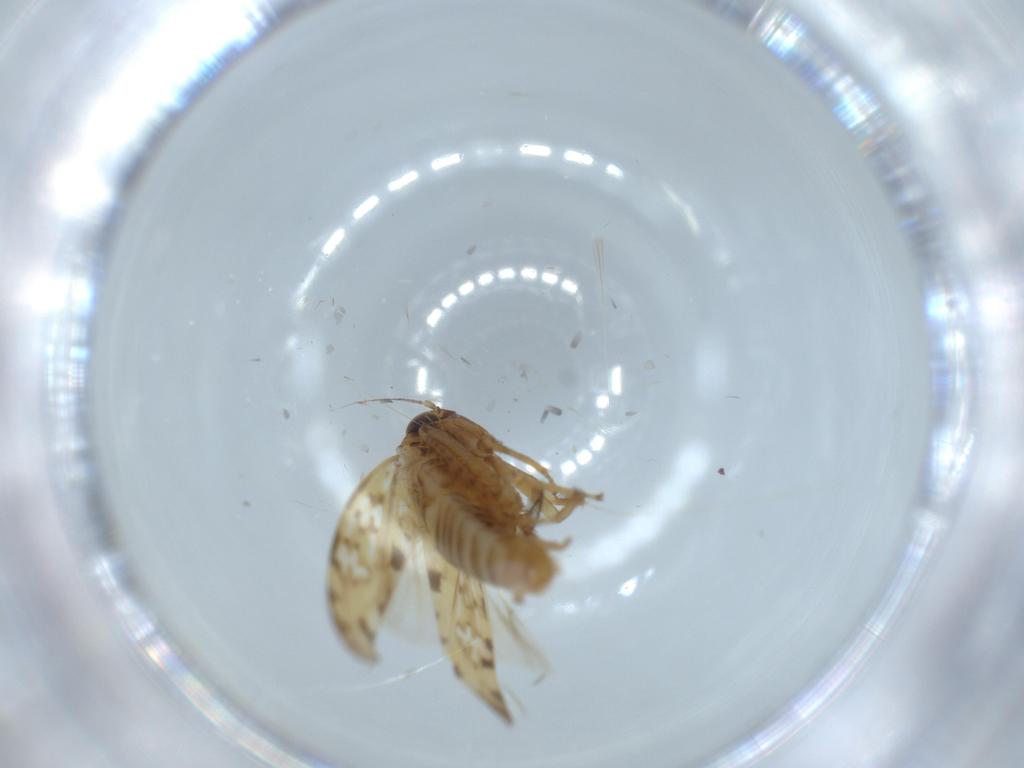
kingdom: Animalia
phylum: Arthropoda
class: Insecta
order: Hemiptera
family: Cicadellidae
